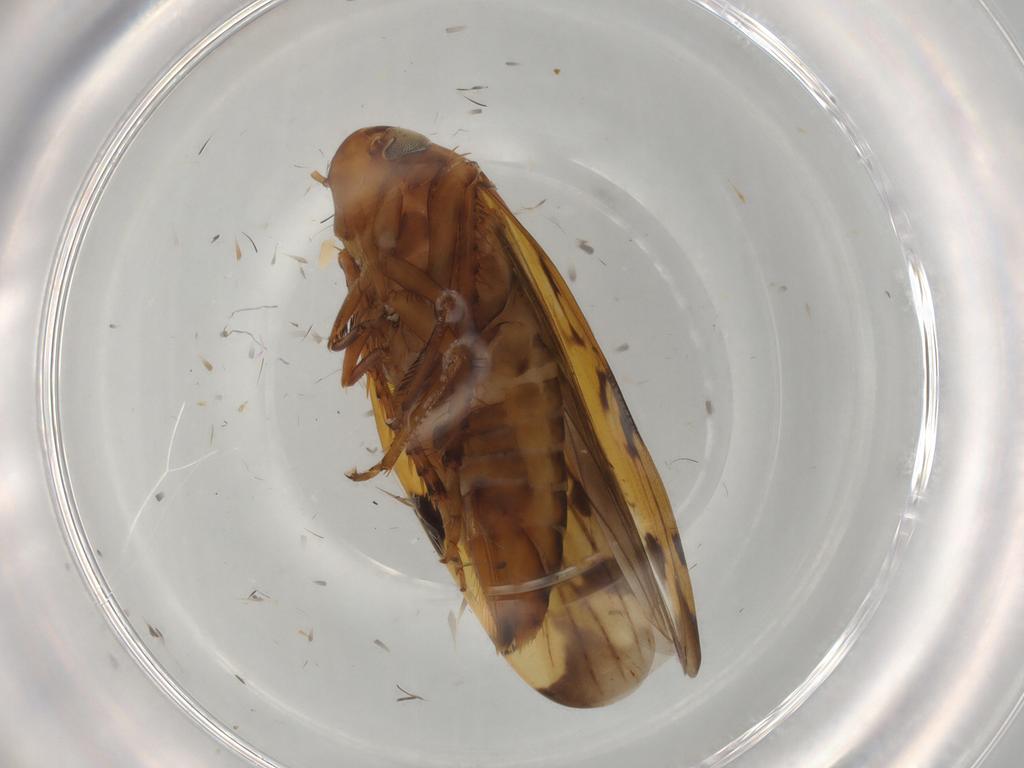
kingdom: Animalia
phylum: Arthropoda
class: Insecta
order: Hemiptera
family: Cicadellidae
